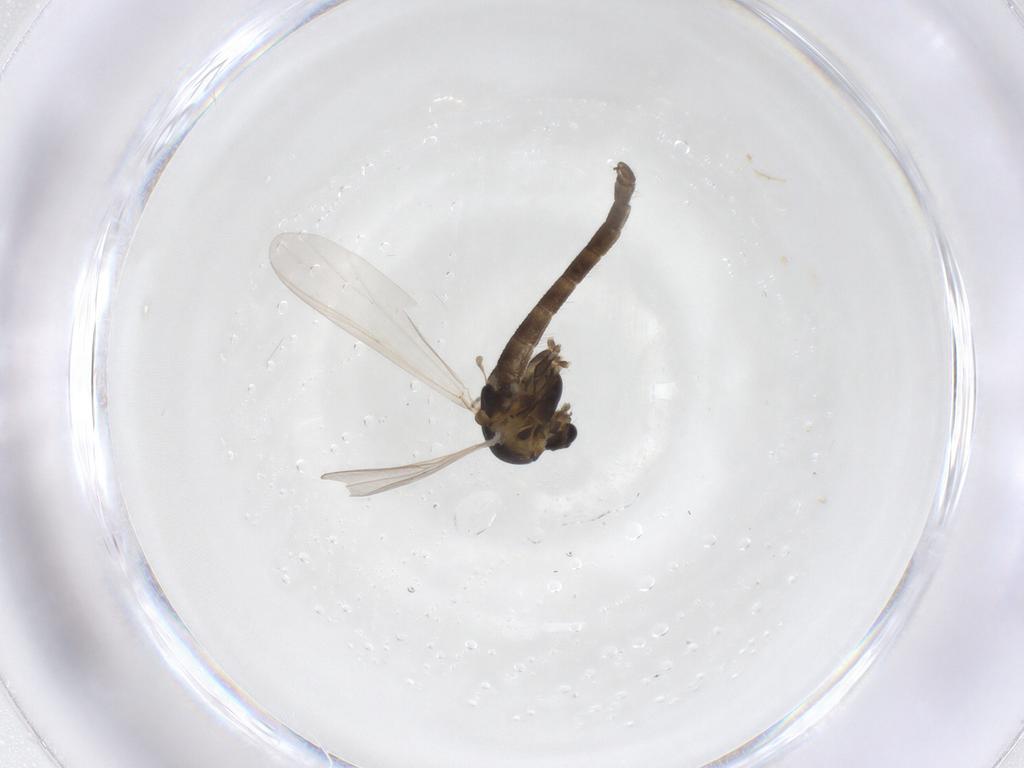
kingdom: Animalia
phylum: Arthropoda
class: Insecta
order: Diptera
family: Chironomidae
